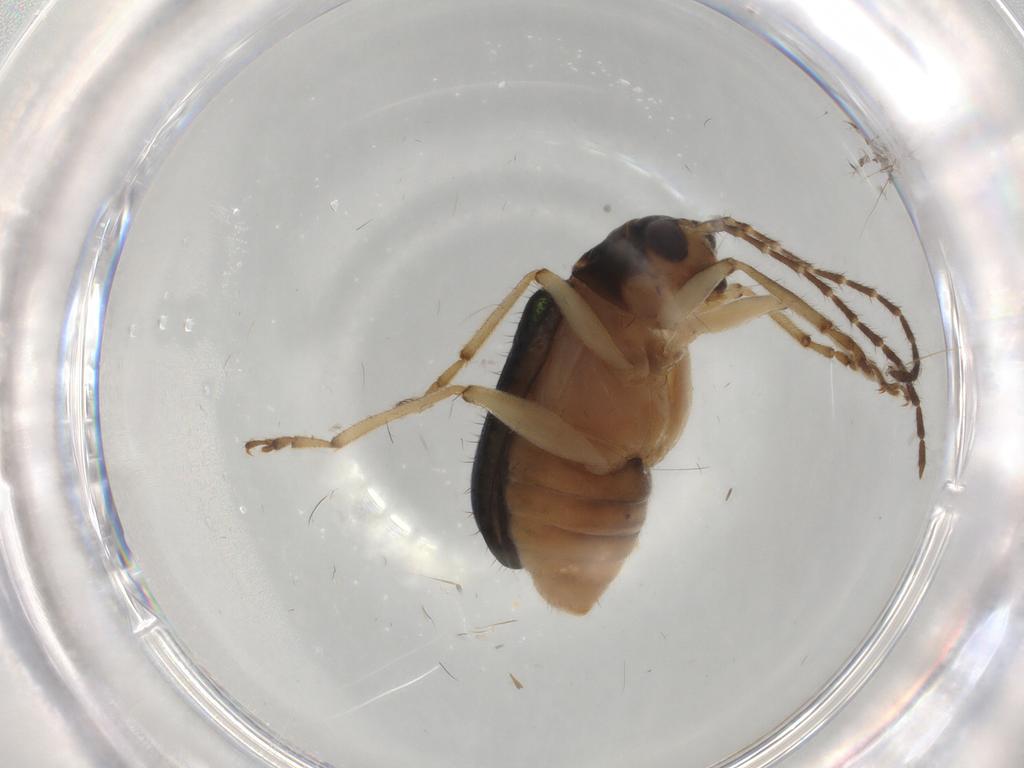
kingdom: Animalia
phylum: Arthropoda
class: Insecta
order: Coleoptera
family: Chrysomelidae
